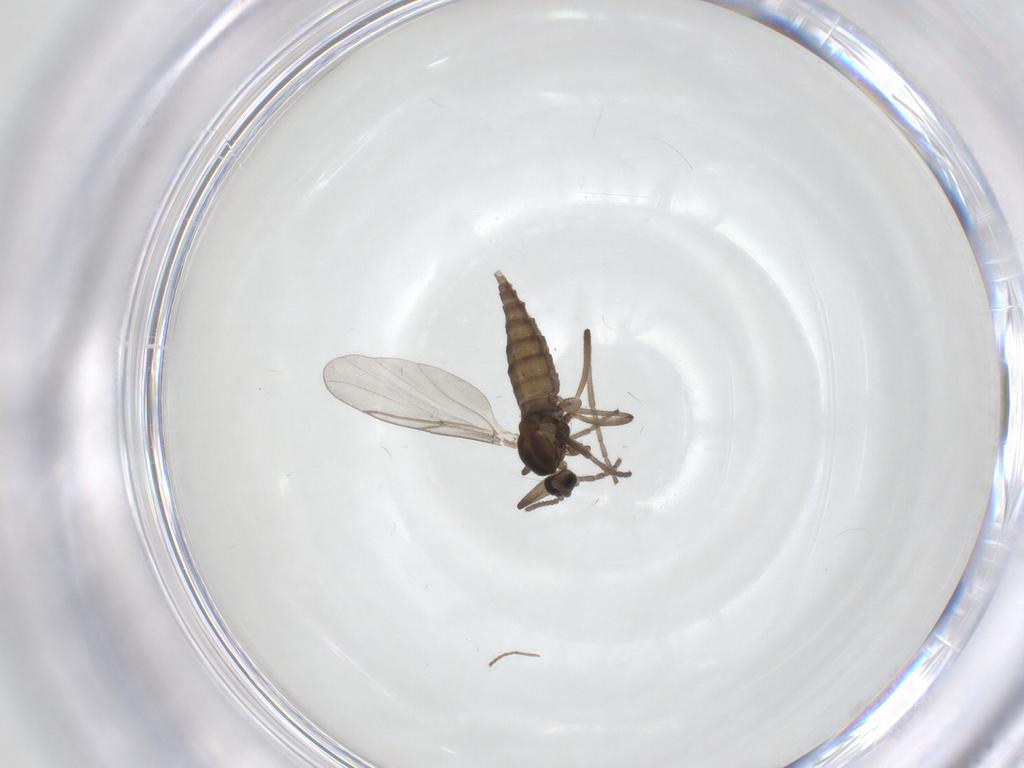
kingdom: Animalia
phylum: Arthropoda
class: Insecta
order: Diptera
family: Cecidomyiidae
